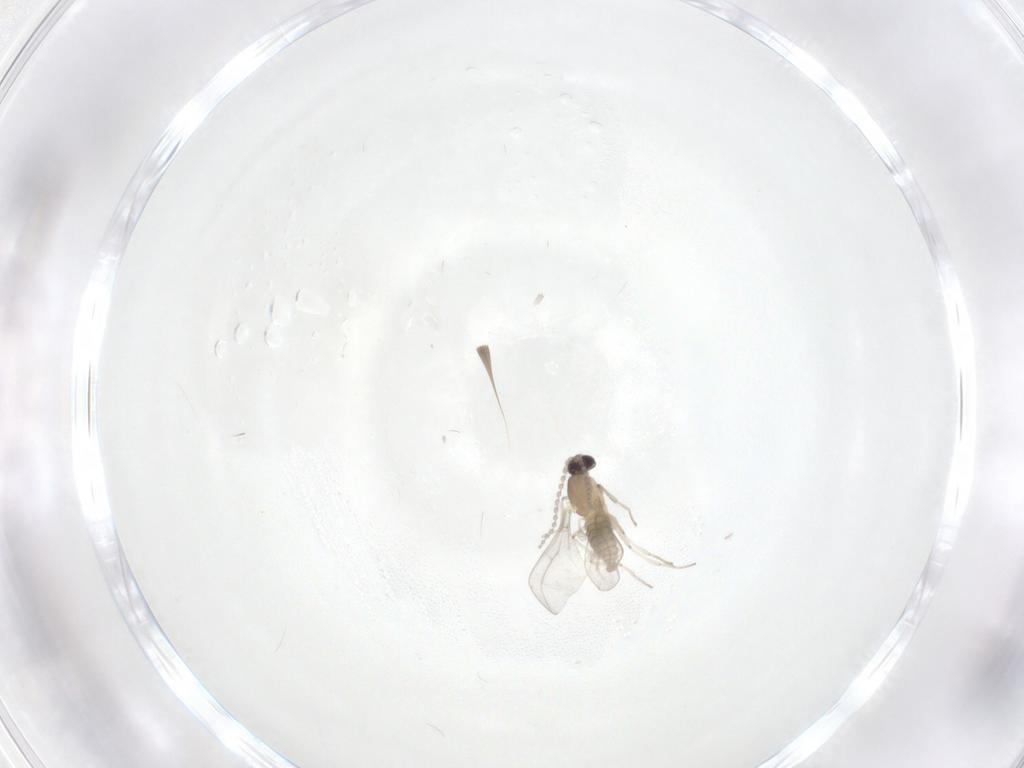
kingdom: Animalia
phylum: Arthropoda
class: Insecta
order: Diptera
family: Cecidomyiidae
